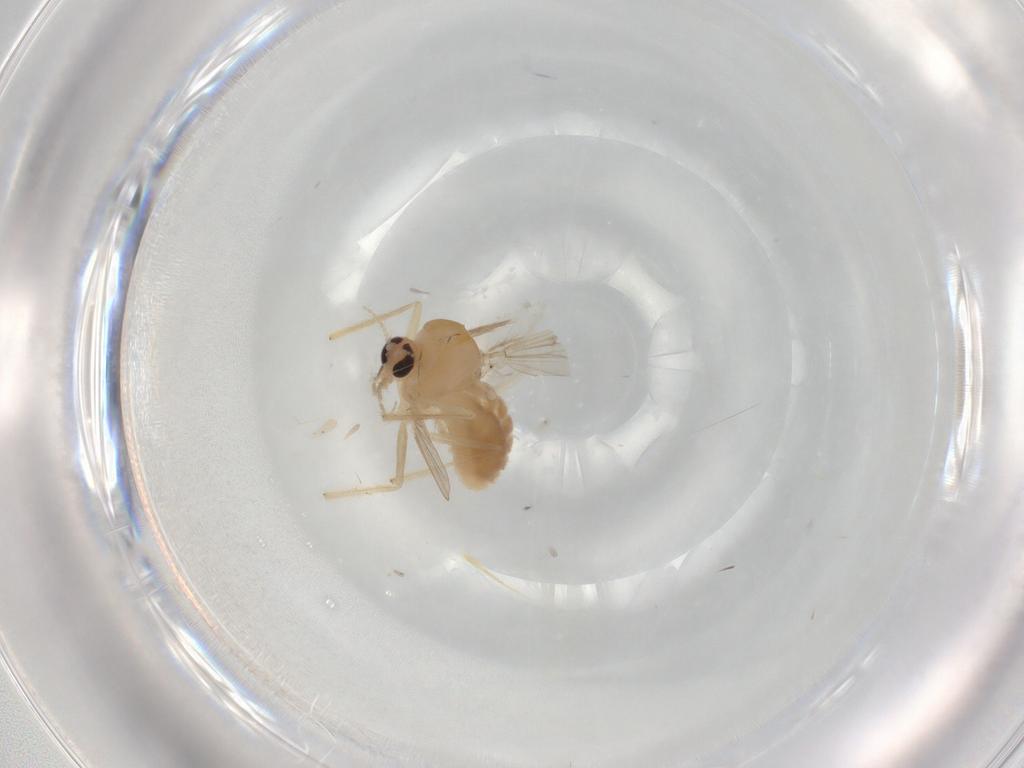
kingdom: Animalia
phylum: Arthropoda
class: Insecta
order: Diptera
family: Chironomidae
